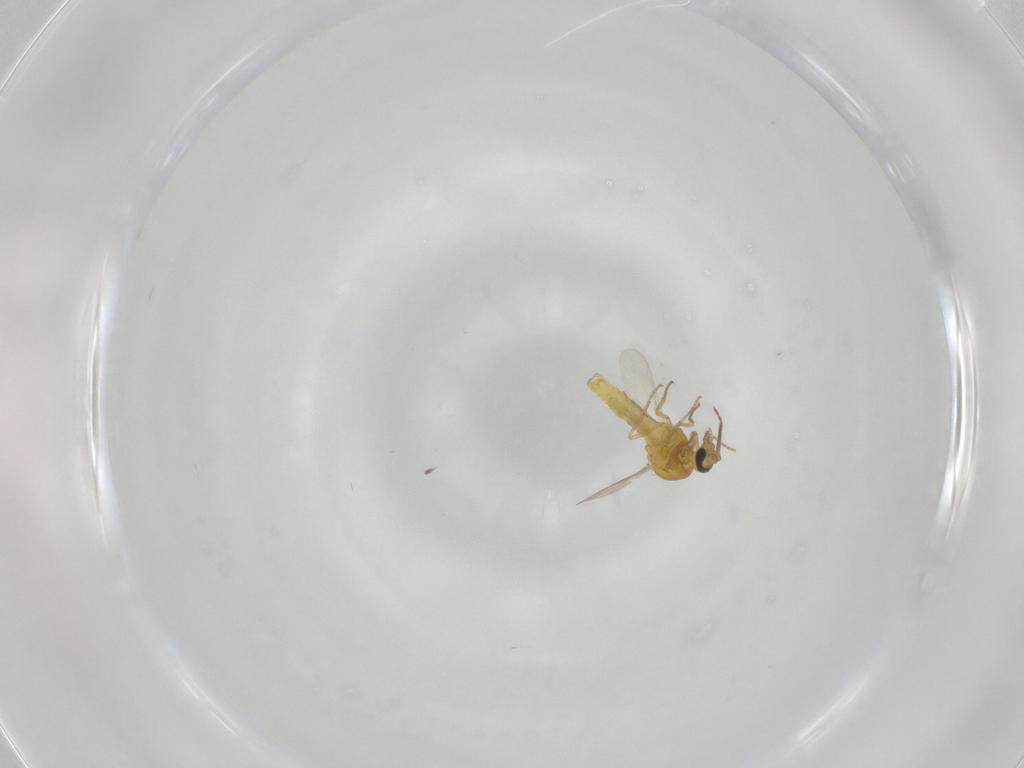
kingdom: Animalia
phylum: Arthropoda
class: Insecta
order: Diptera
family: Ceratopogonidae
